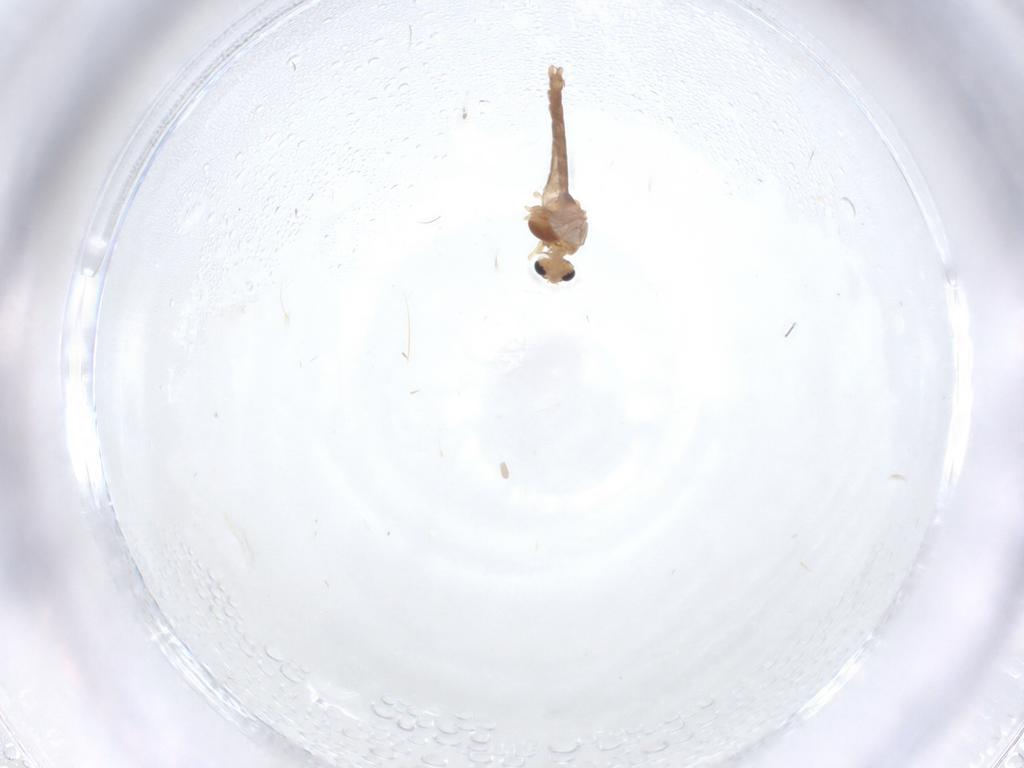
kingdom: Animalia
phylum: Arthropoda
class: Insecta
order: Diptera
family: Chironomidae
